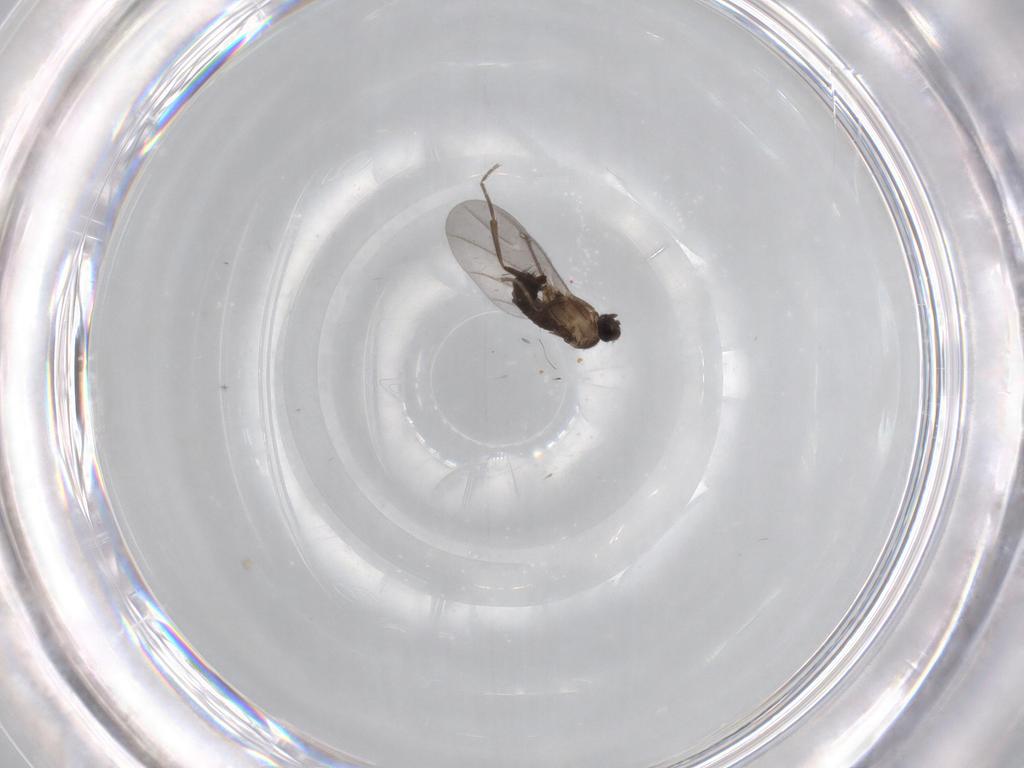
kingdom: Animalia
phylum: Arthropoda
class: Insecta
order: Diptera
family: Phoridae
